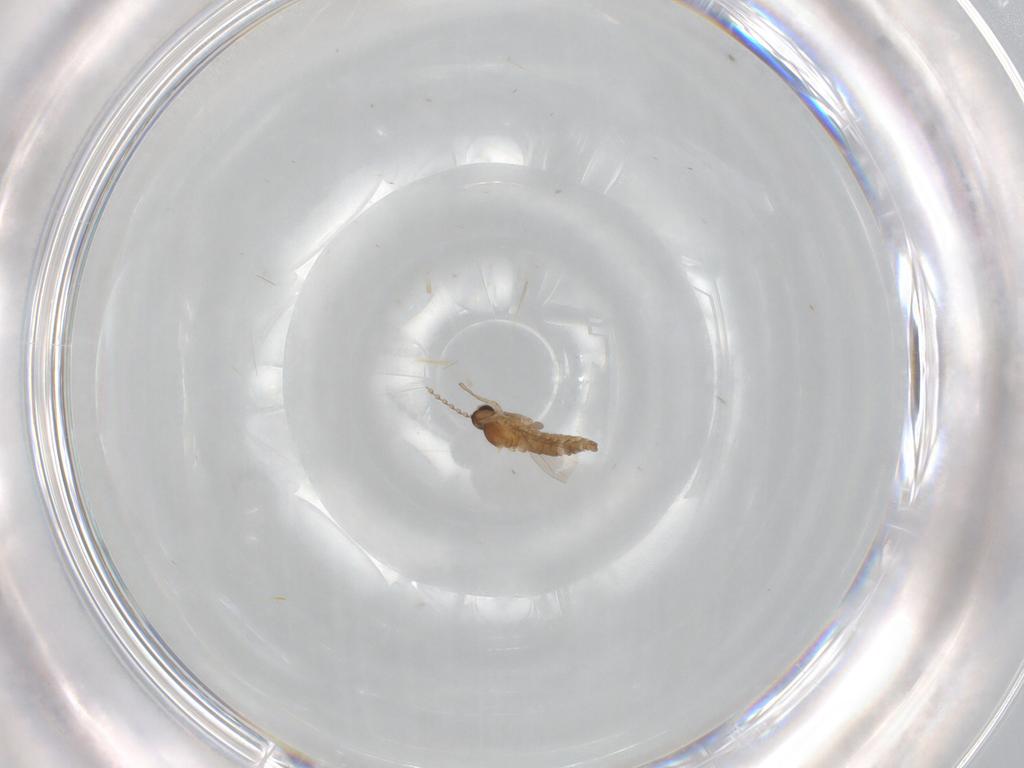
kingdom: Animalia
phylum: Arthropoda
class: Insecta
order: Diptera
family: Cecidomyiidae
